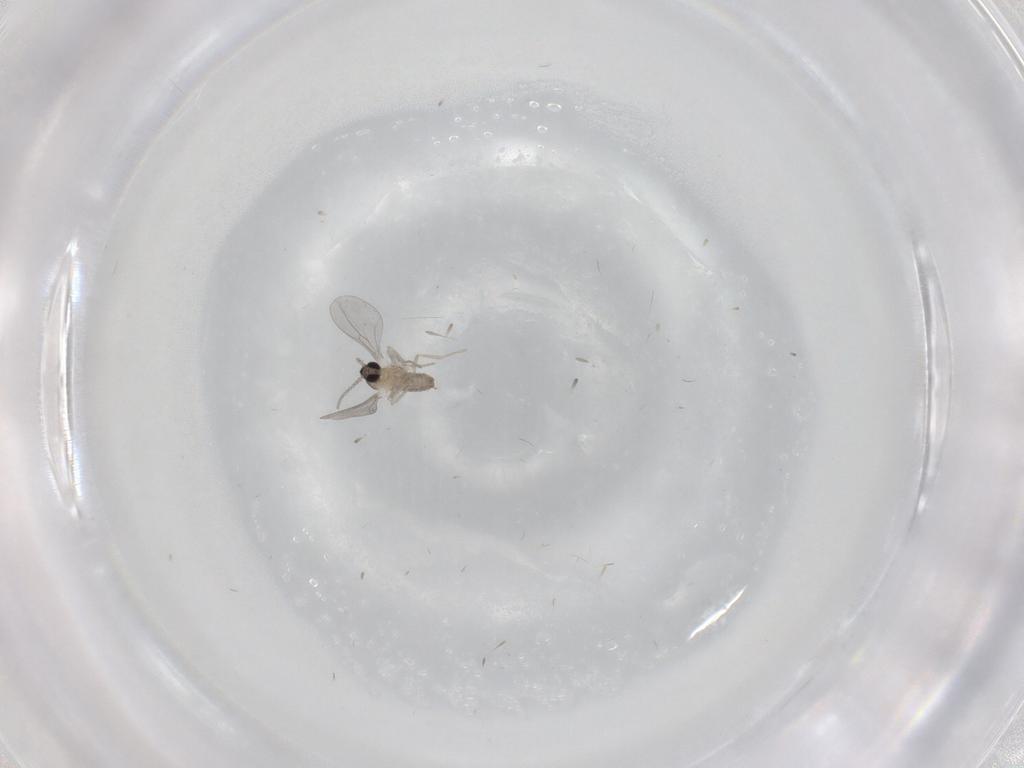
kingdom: Animalia
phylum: Arthropoda
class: Insecta
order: Diptera
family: Cecidomyiidae
